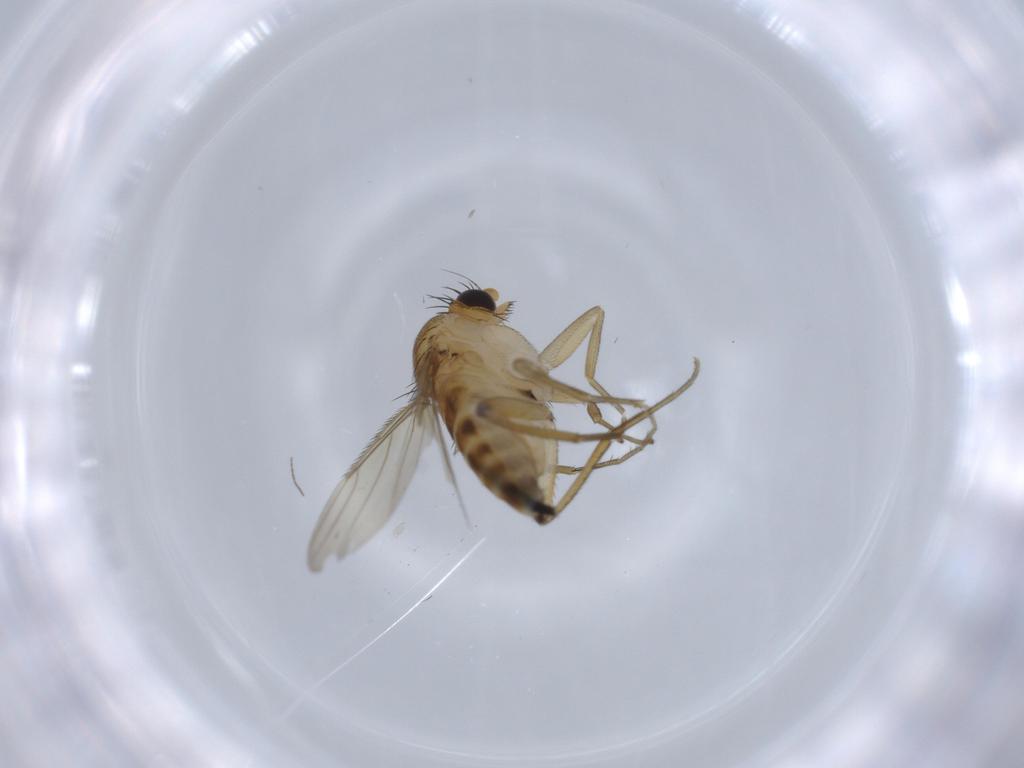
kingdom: Animalia
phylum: Arthropoda
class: Insecta
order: Diptera
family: Phoridae
